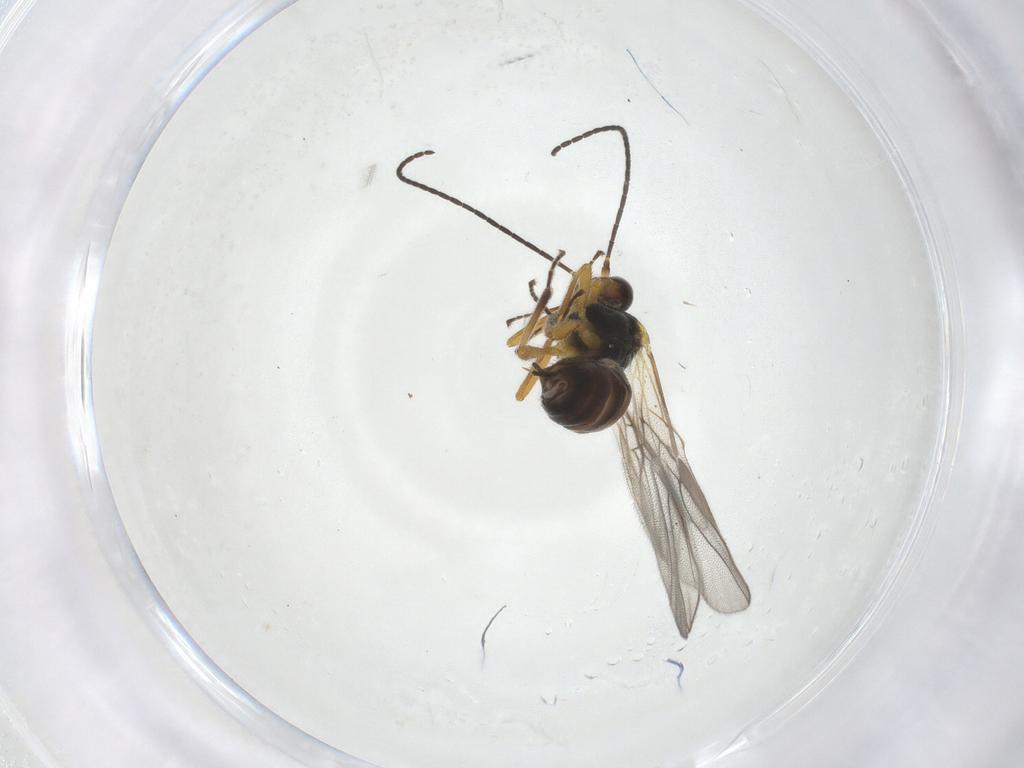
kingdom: Animalia
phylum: Arthropoda
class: Insecta
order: Hymenoptera
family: Braconidae
